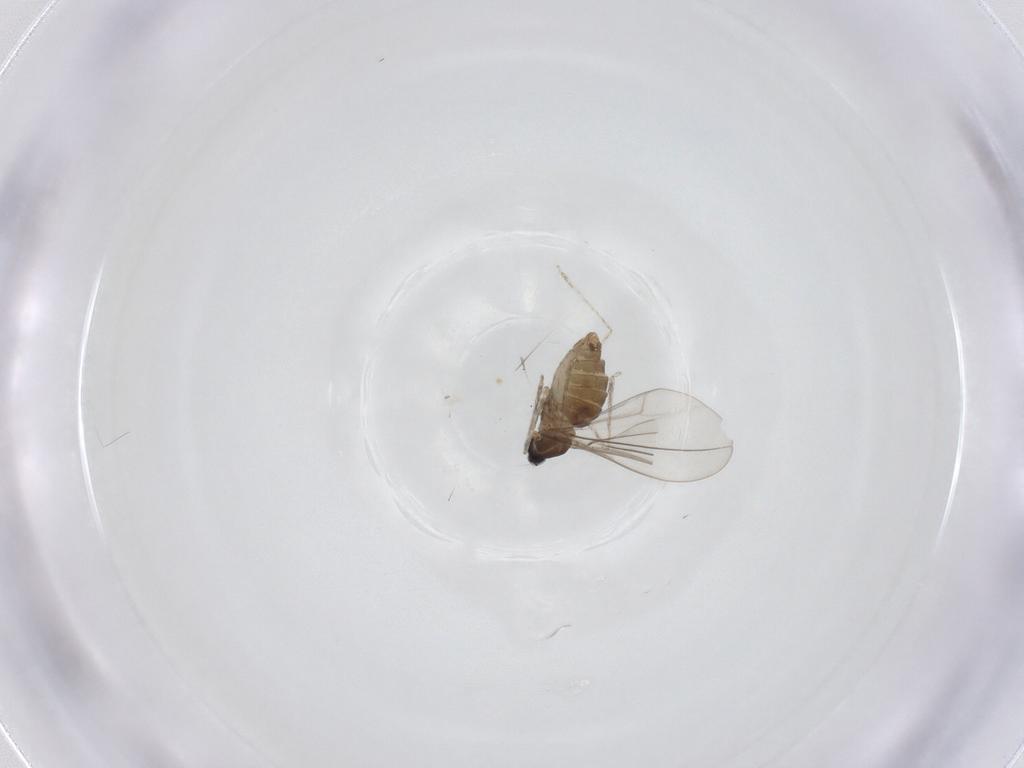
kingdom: Animalia
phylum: Arthropoda
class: Insecta
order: Diptera
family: Cecidomyiidae
